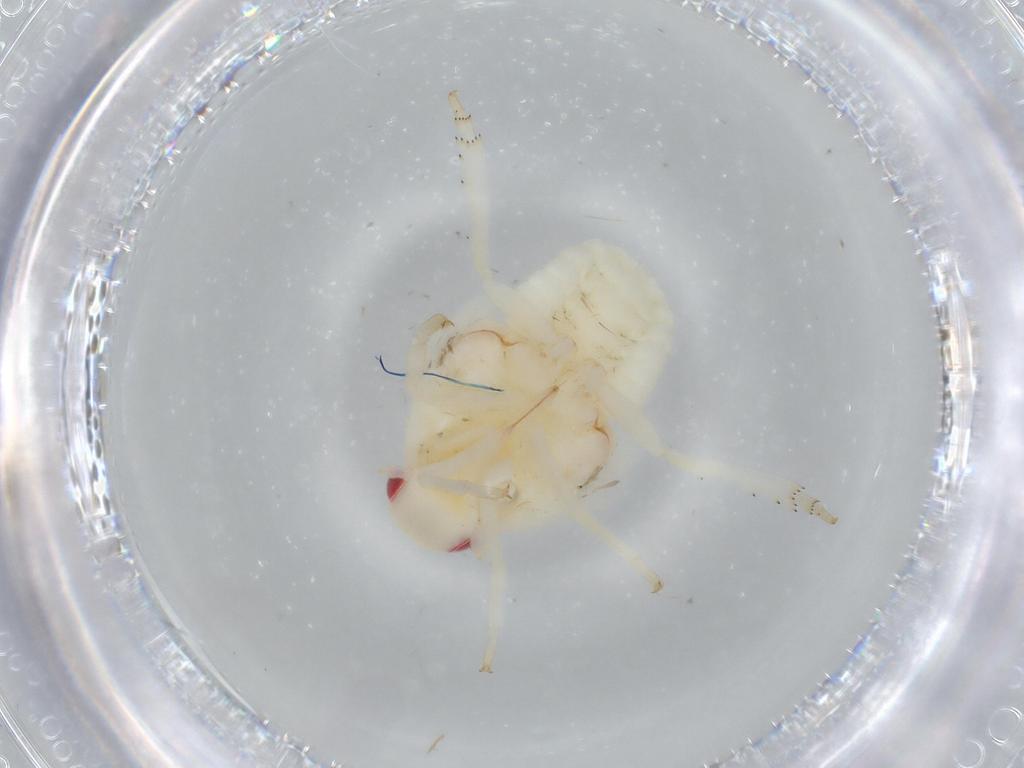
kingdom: Animalia
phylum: Arthropoda
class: Insecta
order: Hemiptera
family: Flatidae
